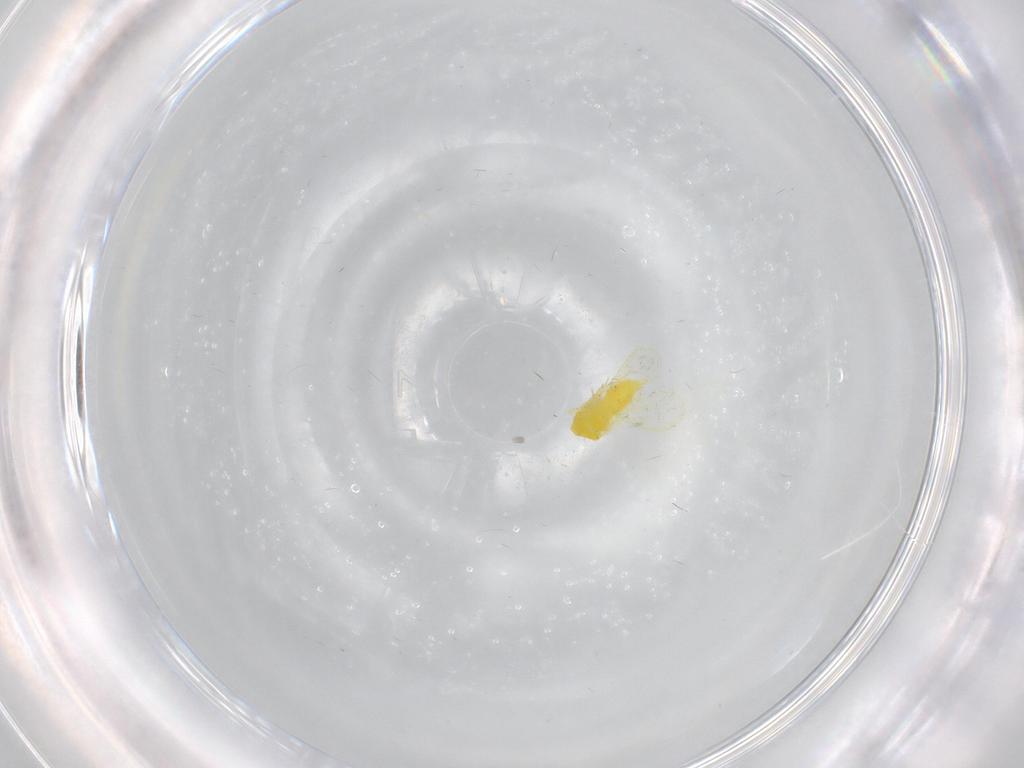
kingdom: Animalia
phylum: Arthropoda
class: Insecta
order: Hemiptera
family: Aleyrodidae
